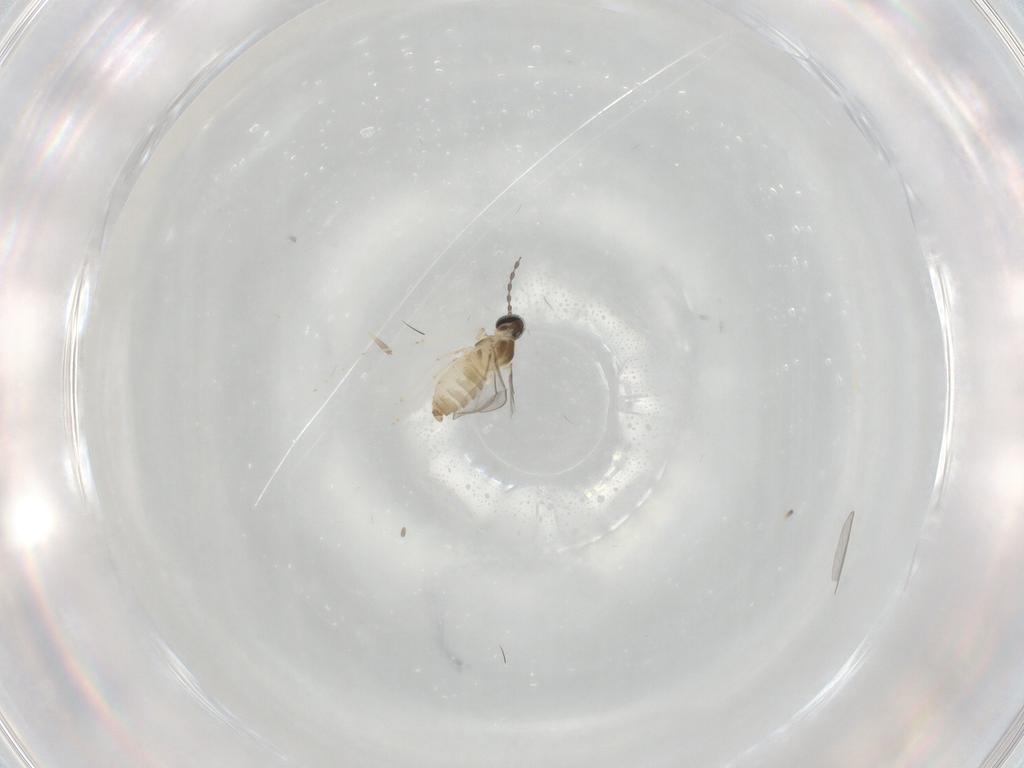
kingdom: Animalia
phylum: Arthropoda
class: Insecta
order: Diptera
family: Cecidomyiidae
